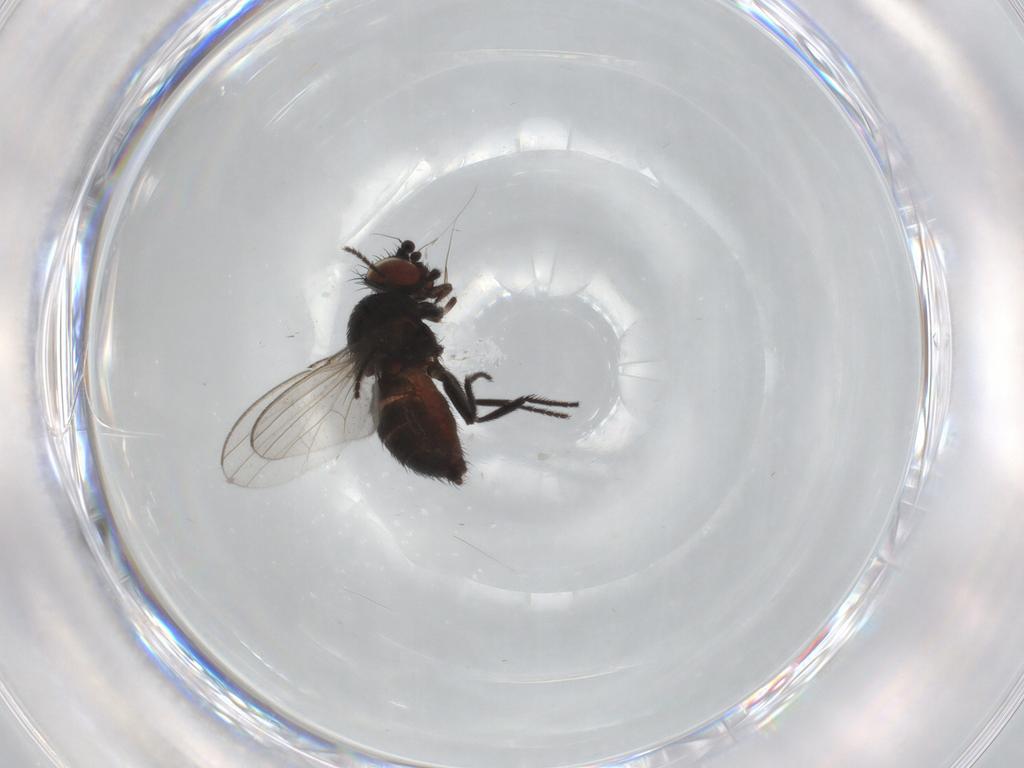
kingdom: Animalia
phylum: Arthropoda
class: Insecta
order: Diptera
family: Milichiidae
